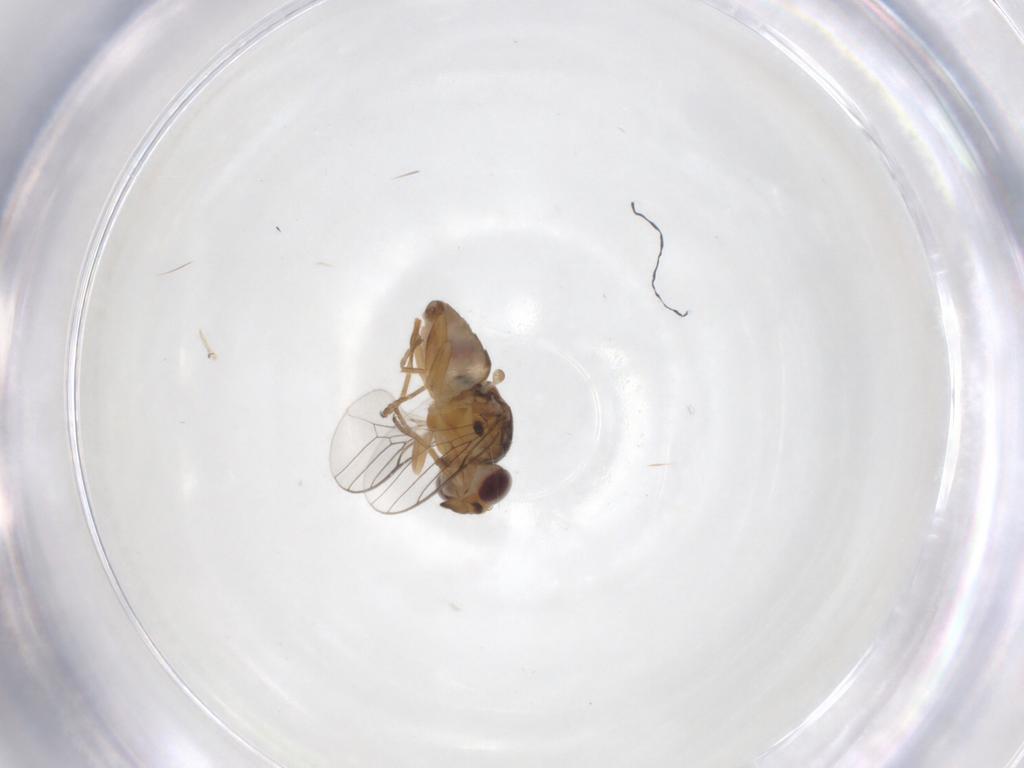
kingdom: Animalia
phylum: Arthropoda
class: Insecta
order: Diptera
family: Chloropidae
